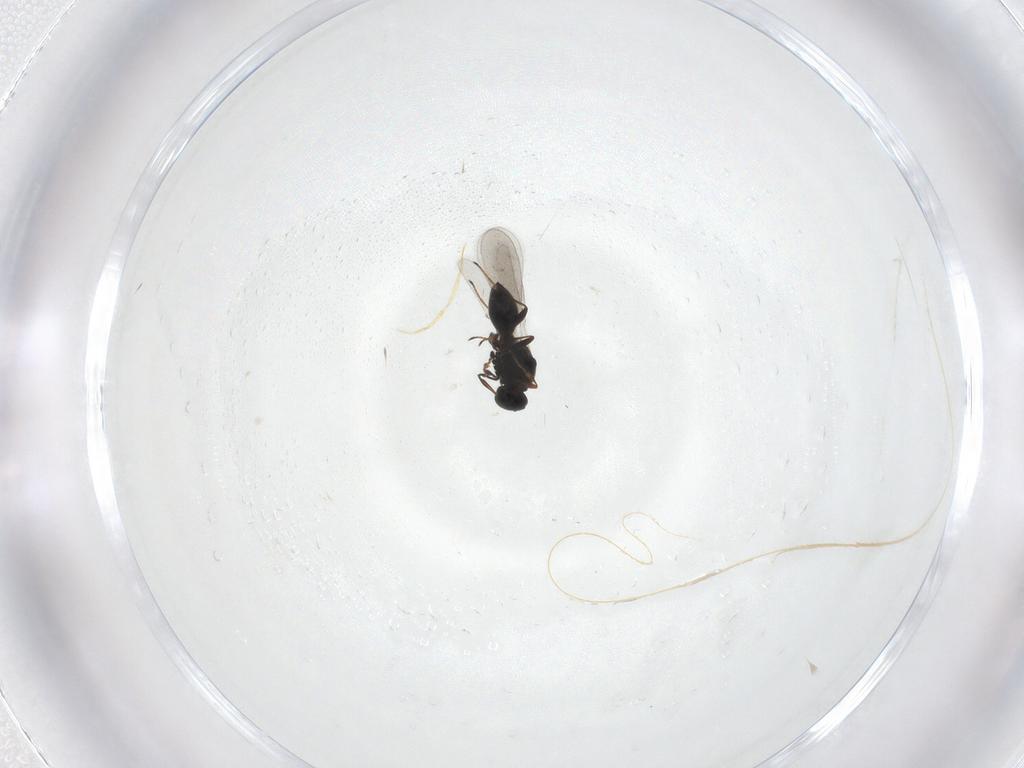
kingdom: Animalia
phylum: Arthropoda
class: Insecta
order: Hymenoptera
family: Platygastridae
